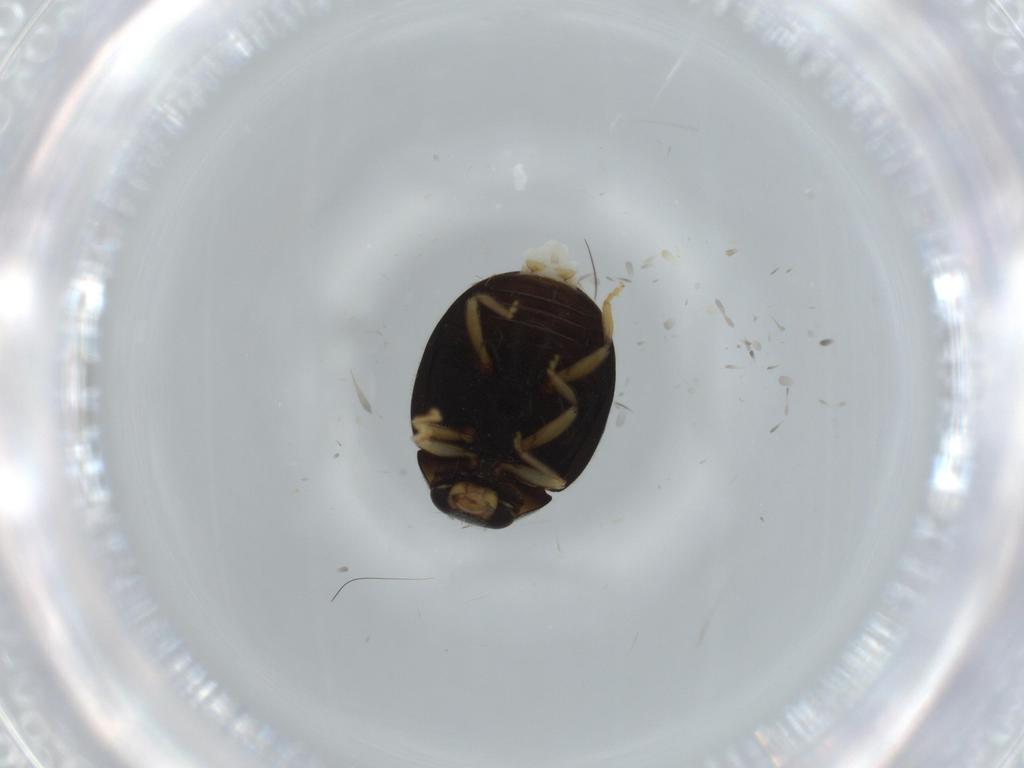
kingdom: Animalia
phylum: Arthropoda
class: Insecta
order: Coleoptera
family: Coccinellidae
